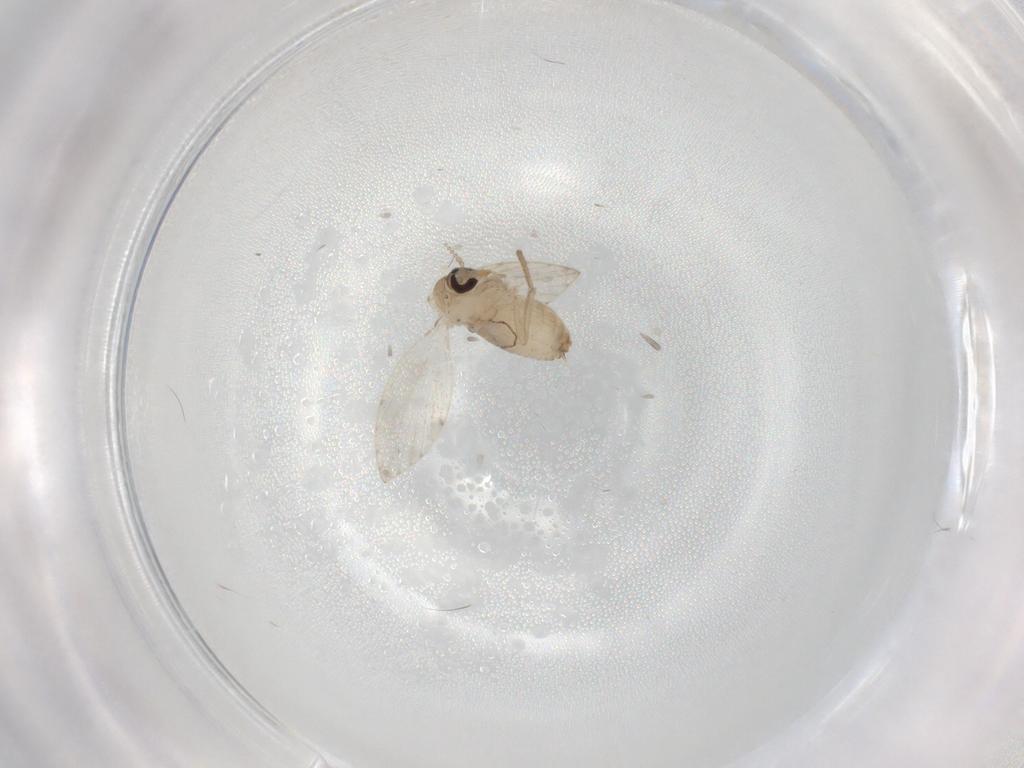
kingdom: Animalia
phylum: Arthropoda
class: Insecta
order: Diptera
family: Psychodidae
